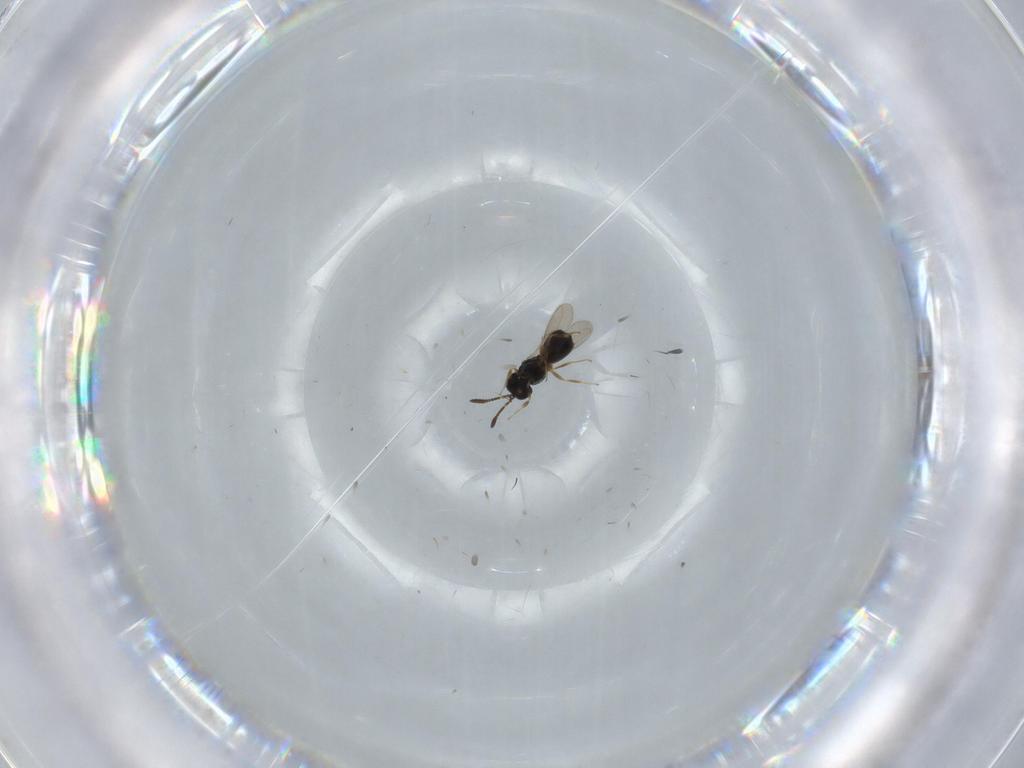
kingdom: Animalia
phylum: Arthropoda
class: Insecta
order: Hymenoptera
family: Scelionidae
